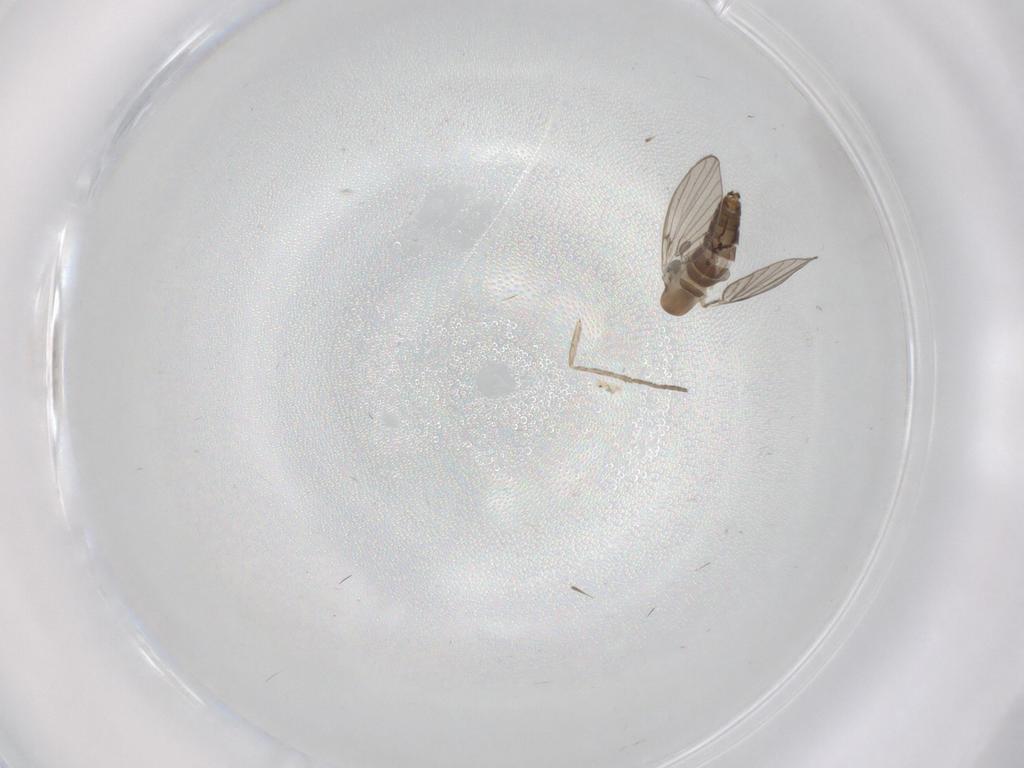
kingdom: Animalia
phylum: Arthropoda
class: Insecta
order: Diptera
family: Psychodidae
